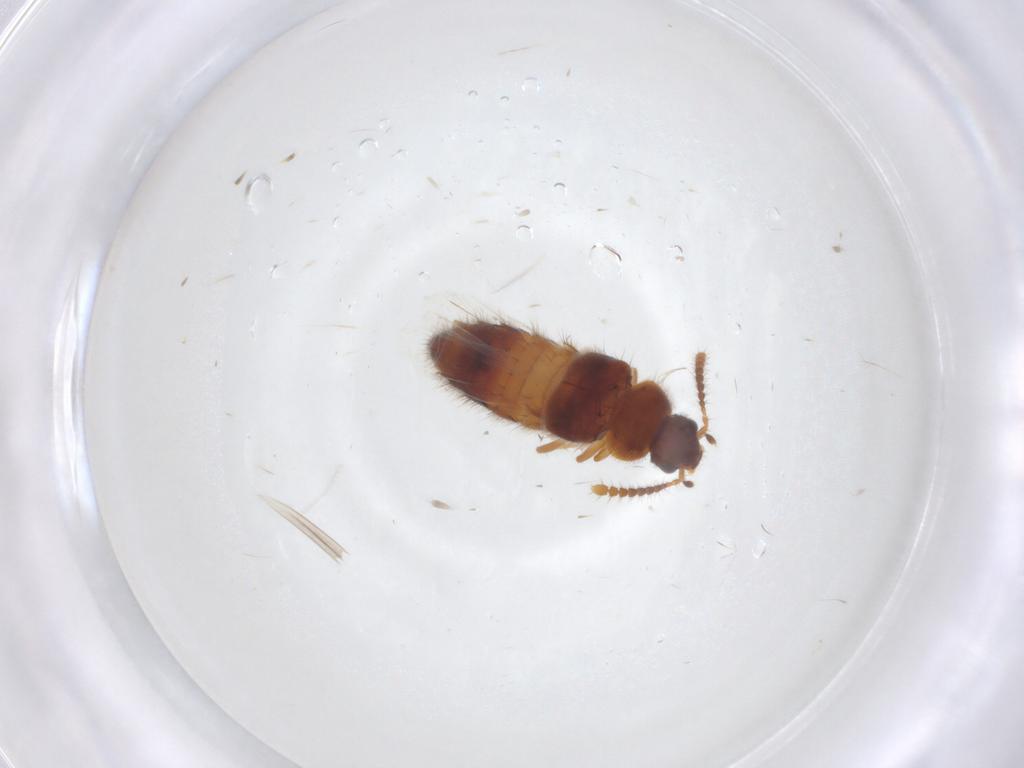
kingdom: Animalia
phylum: Arthropoda
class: Insecta
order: Coleoptera
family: Staphylinidae
